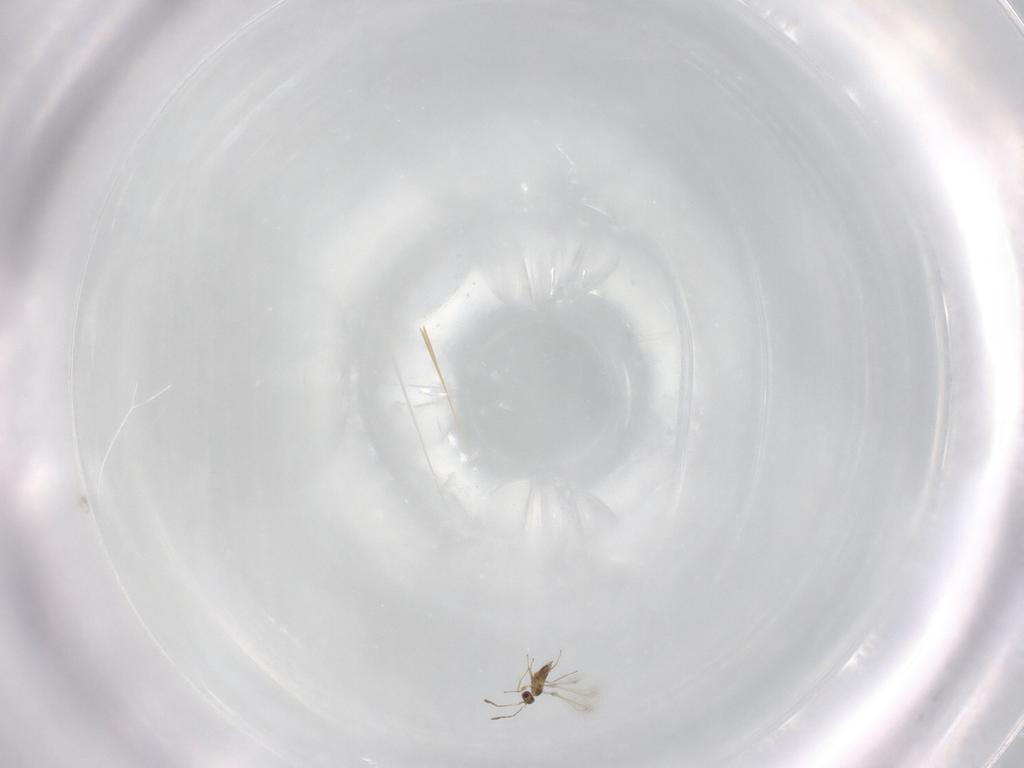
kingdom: Animalia
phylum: Arthropoda
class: Insecta
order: Hymenoptera
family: Mymaridae
